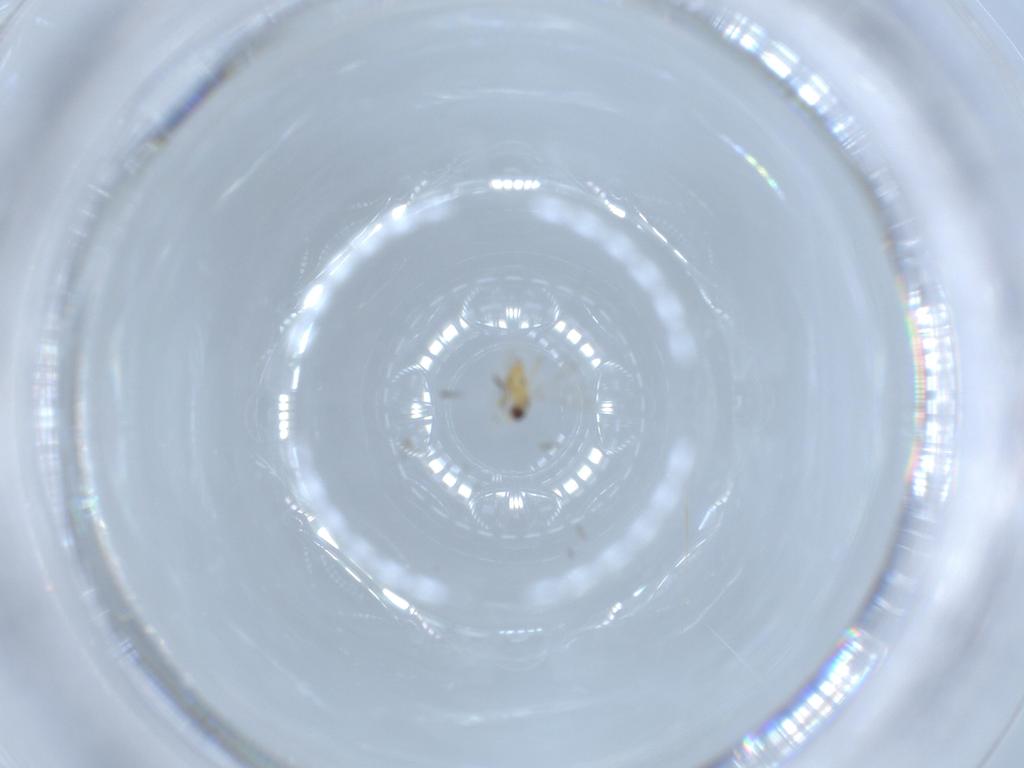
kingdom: Animalia
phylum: Arthropoda
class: Insecta
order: Hymenoptera
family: Mymaridae
